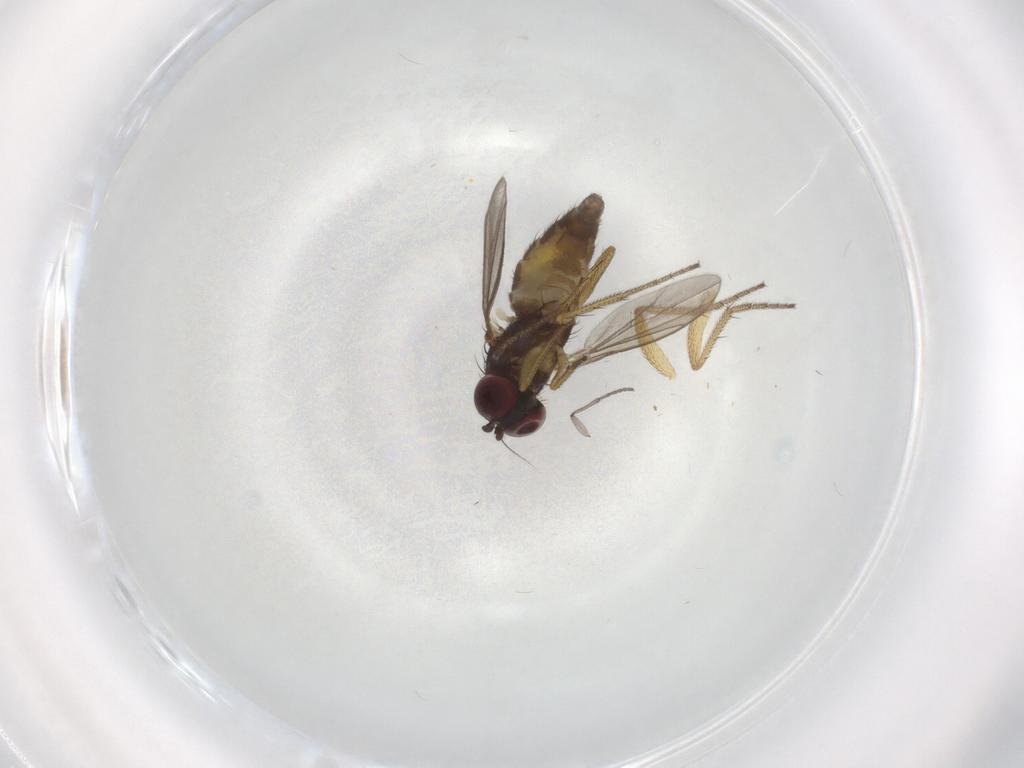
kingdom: Animalia
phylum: Arthropoda
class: Insecta
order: Diptera
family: Dolichopodidae
